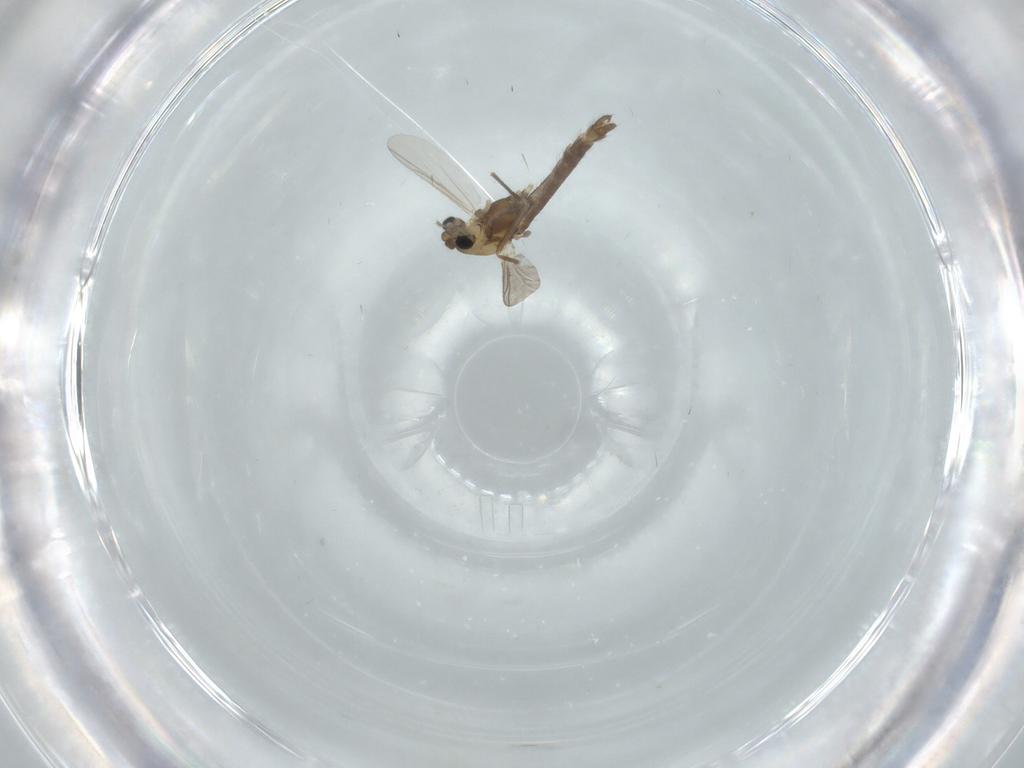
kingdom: Animalia
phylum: Arthropoda
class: Insecta
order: Diptera
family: Chironomidae
